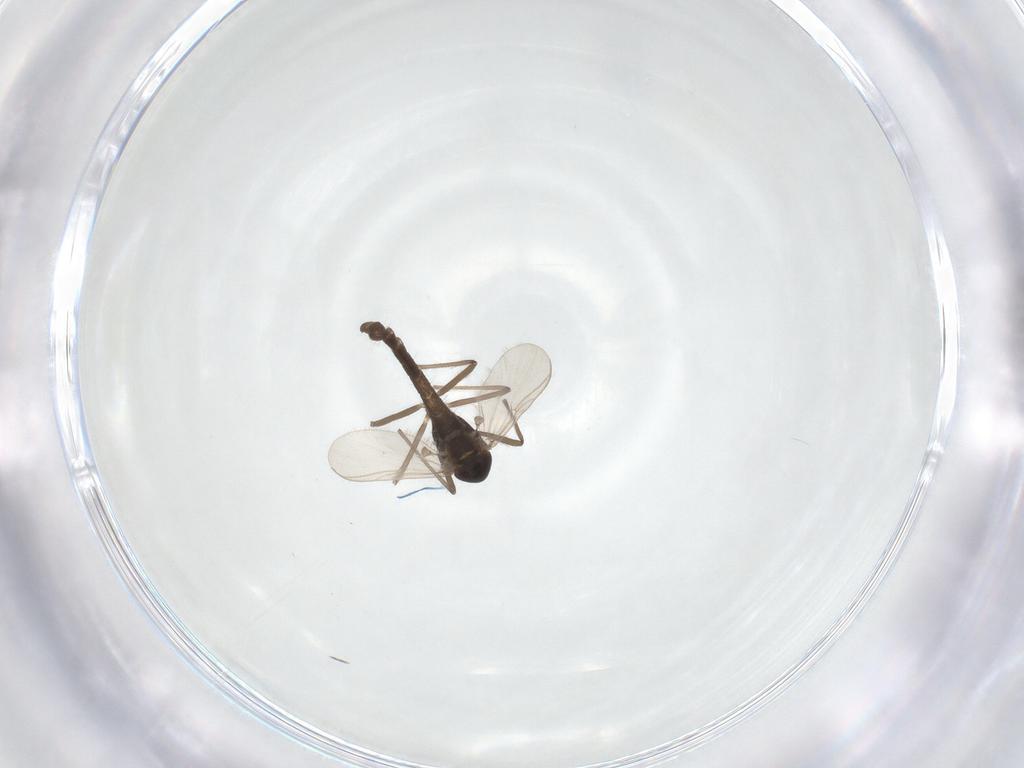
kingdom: Animalia
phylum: Arthropoda
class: Insecta
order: Diptera
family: Chironomidae
